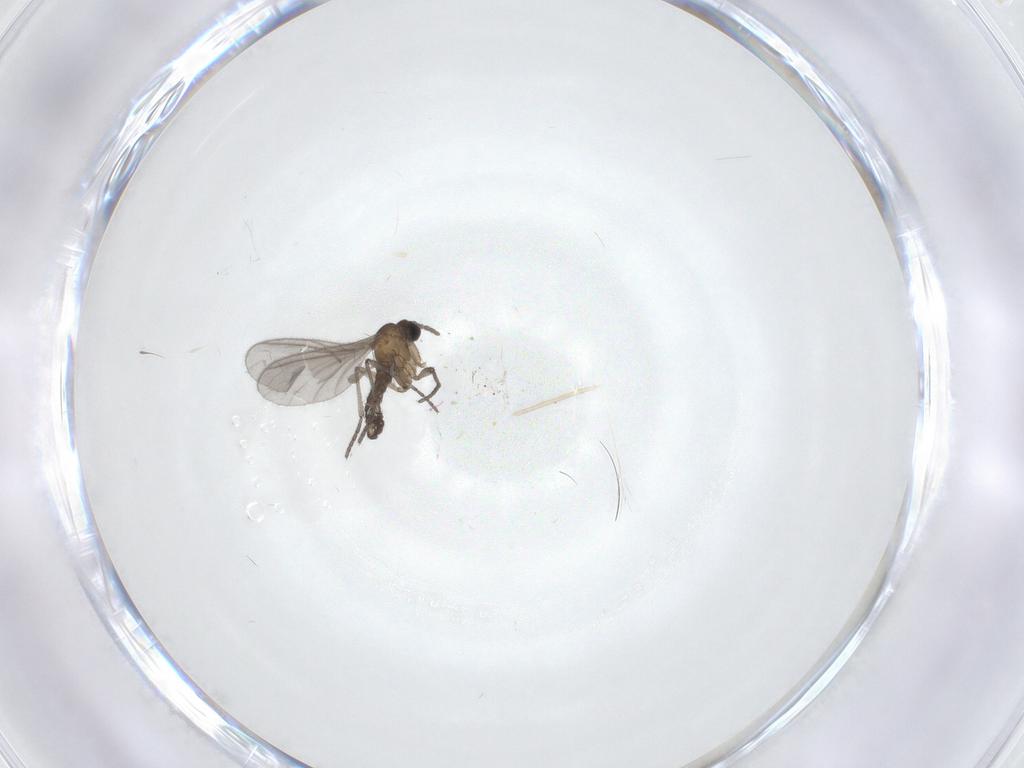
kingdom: Animalia
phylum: Arthropoda
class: Insecta
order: Diptera
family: Sciaridae
